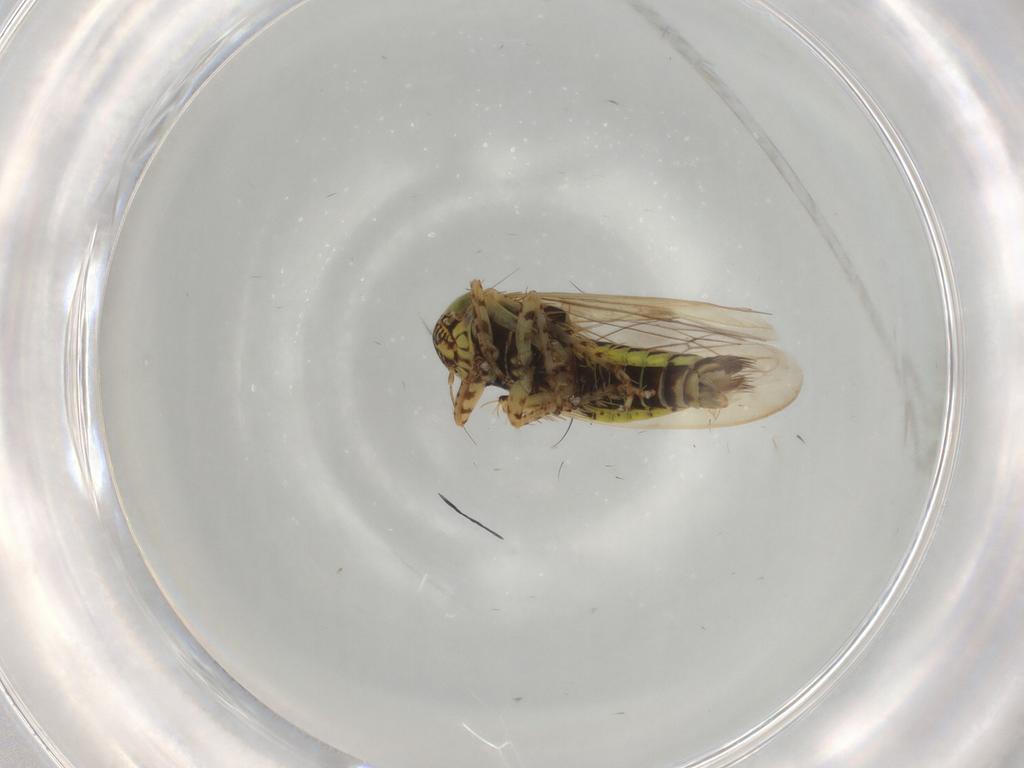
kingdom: Animalia
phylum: Arthropoda
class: Insecta
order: Hemiptera
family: Cicadellidae
